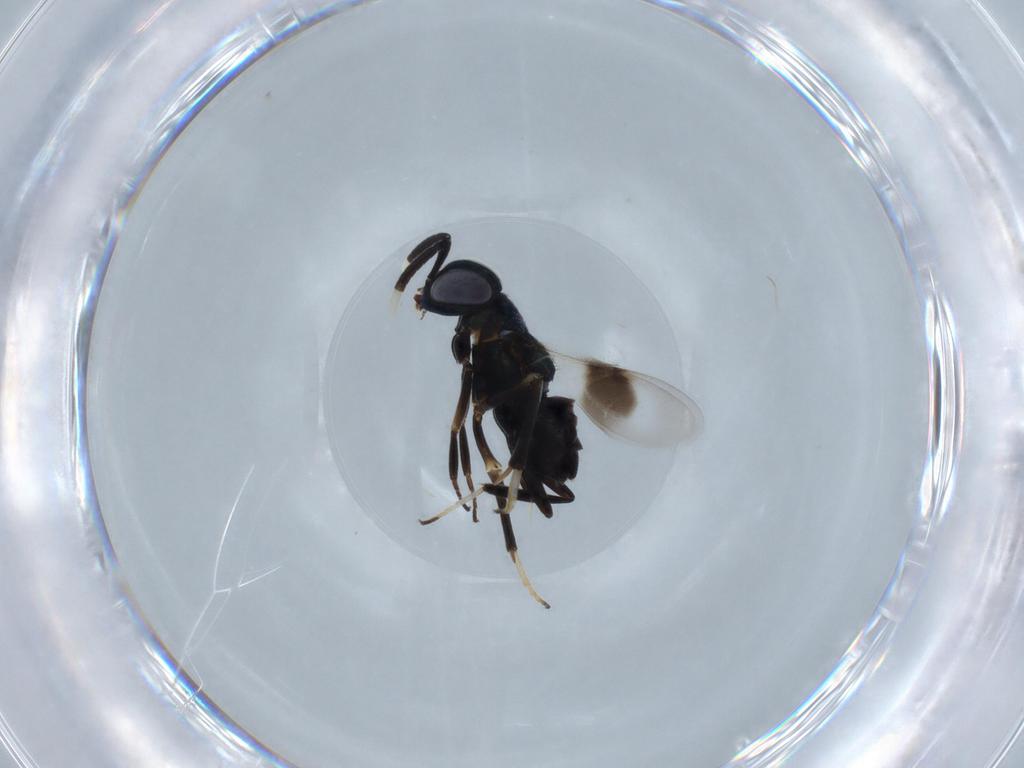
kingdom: Animalia
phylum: Arthropoda
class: Insecta
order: Hymenoptera
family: Encyrtidae
